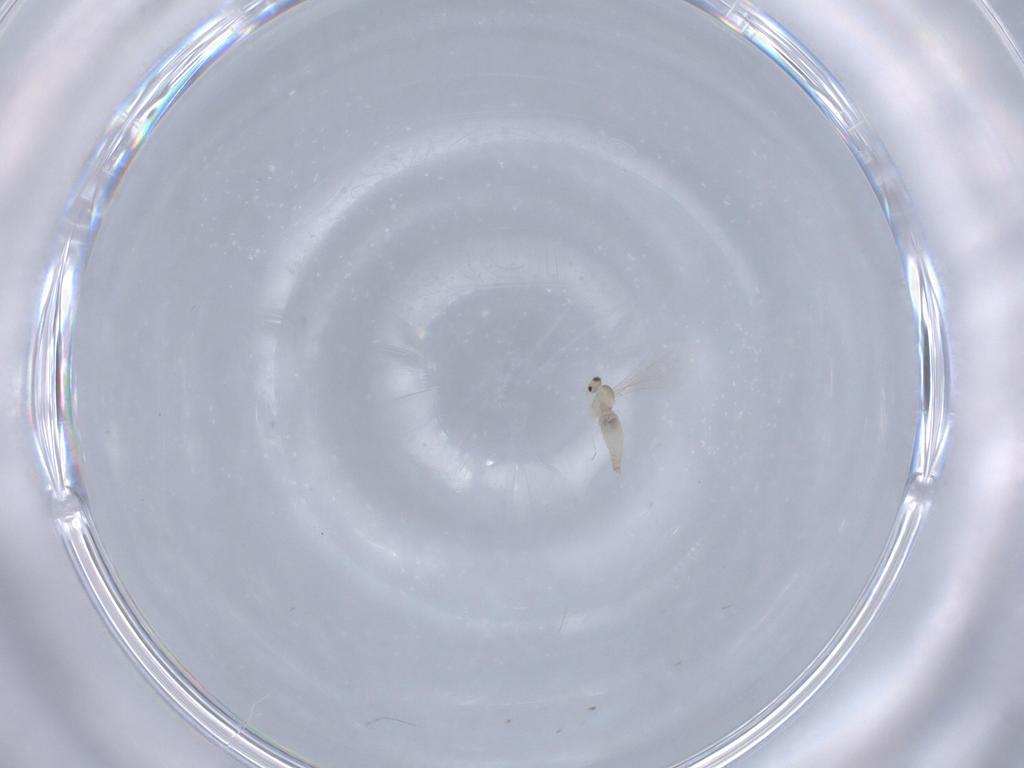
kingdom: Animalia
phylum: Arthropoda
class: Insecta
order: Diptera
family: Cecidomyiidae
